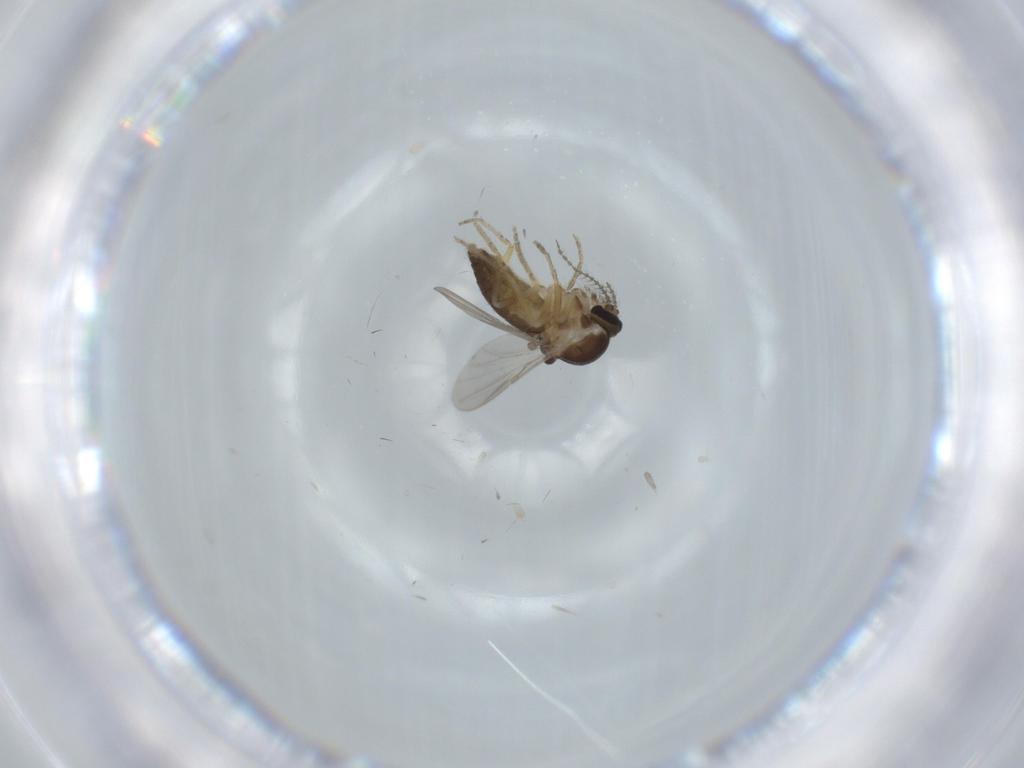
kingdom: Animalia
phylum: Arthropoda
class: Insecta
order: Diptera
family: Ceratopogonidae
